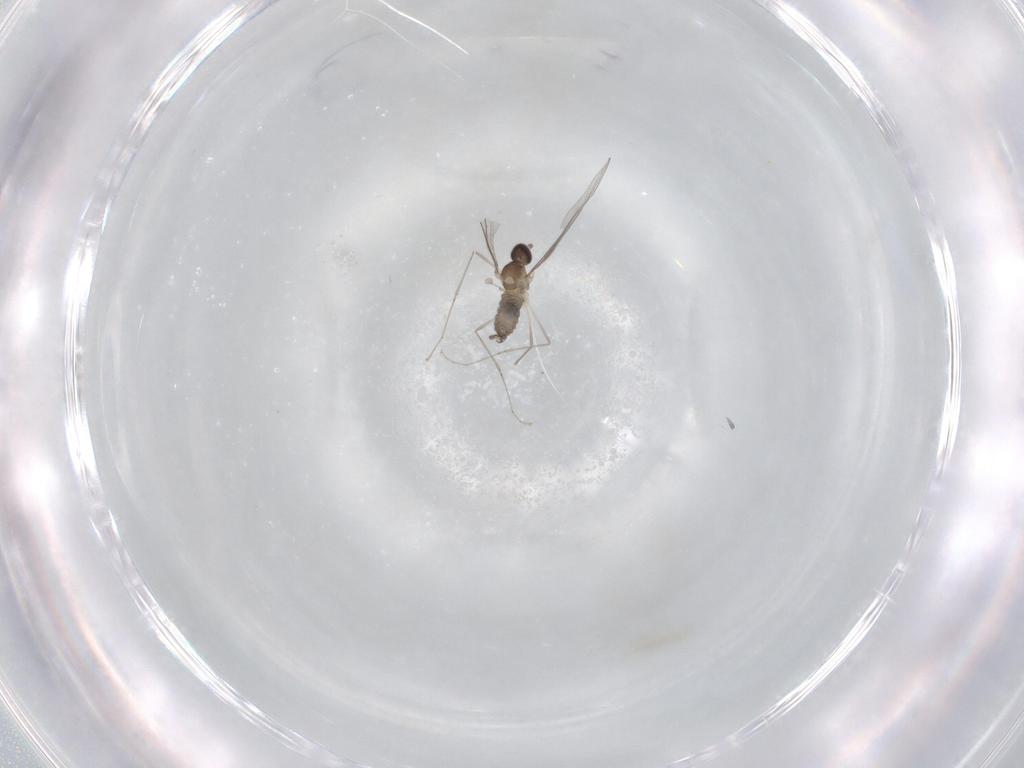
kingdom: Animalia
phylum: Arthropoda
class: Insecta
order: Diptera
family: Cecidomyiidae
